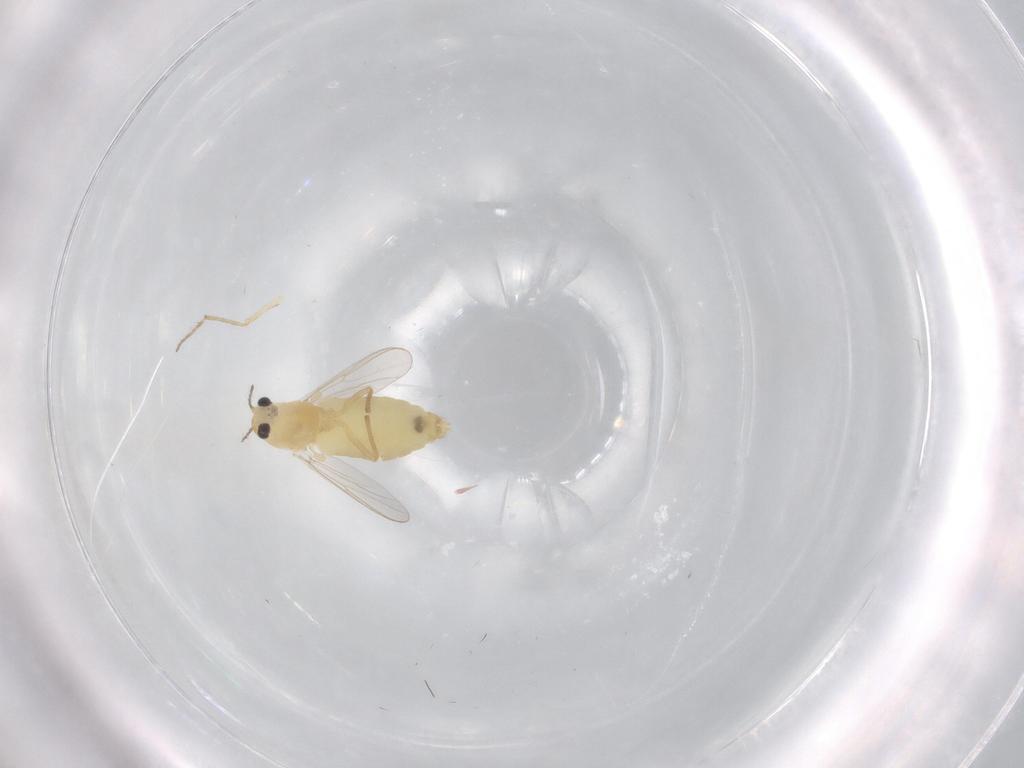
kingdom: Animalia
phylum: Arthropoda
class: Insecta
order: Diptera
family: Chironomidae
